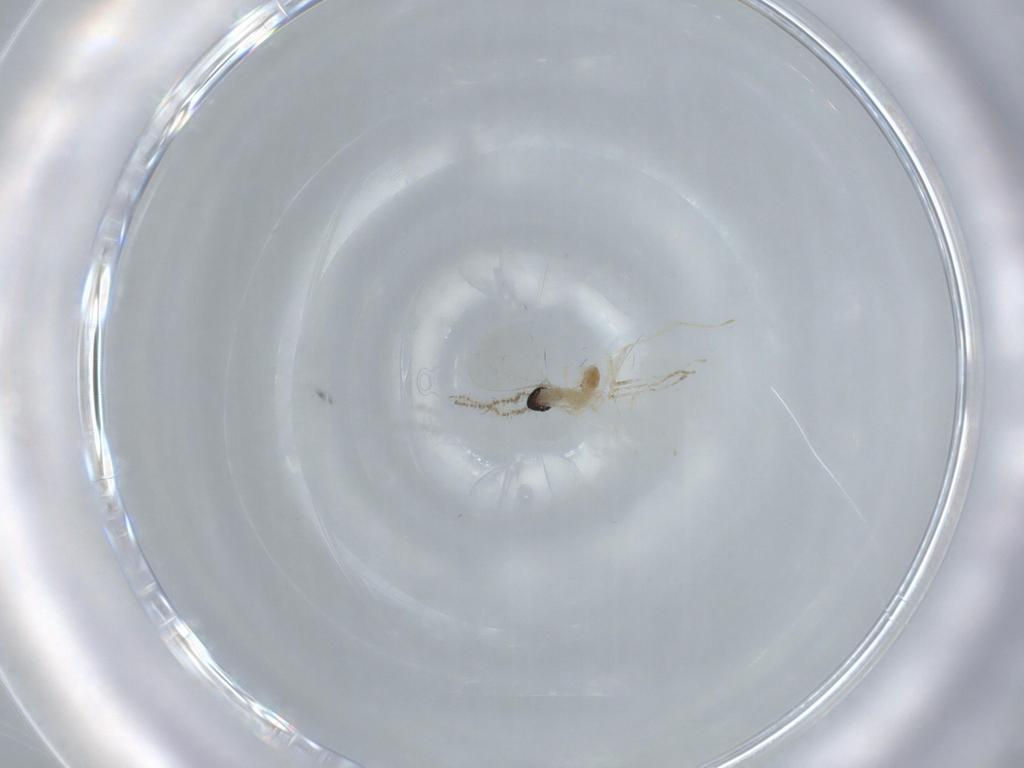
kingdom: Animalia
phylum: Arthropoda
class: Insecta
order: Diptera
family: Cecidomyiidae
